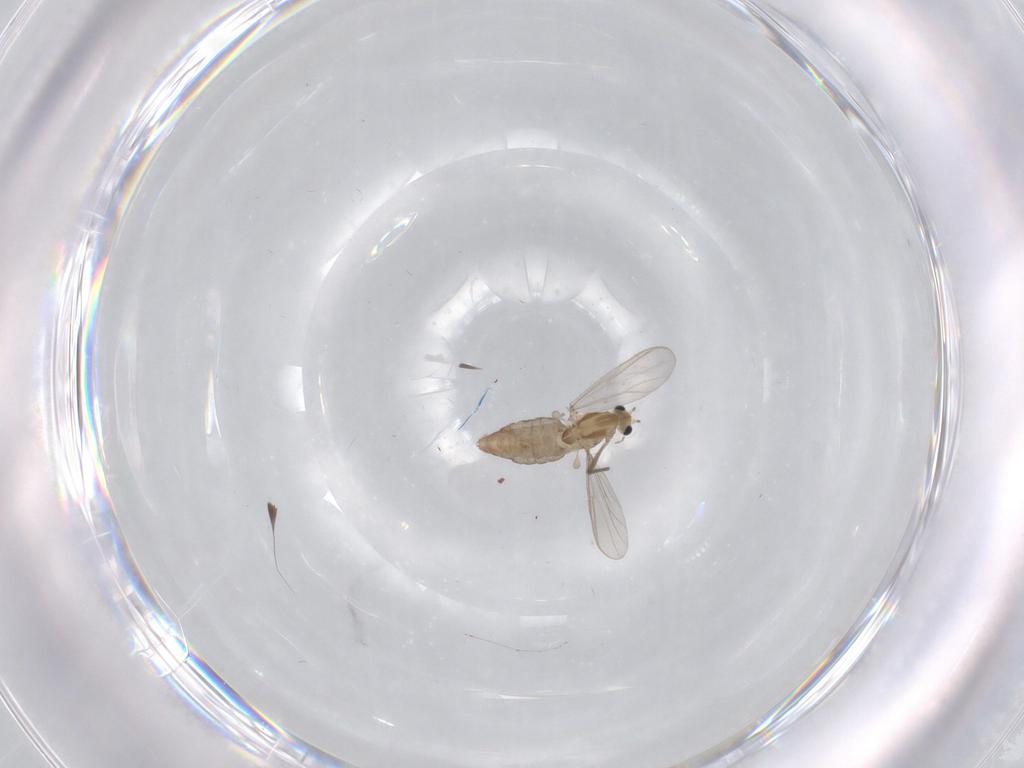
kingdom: Animalia
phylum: Arthropoda
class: Insecta
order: Diptera
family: Chironomidae
